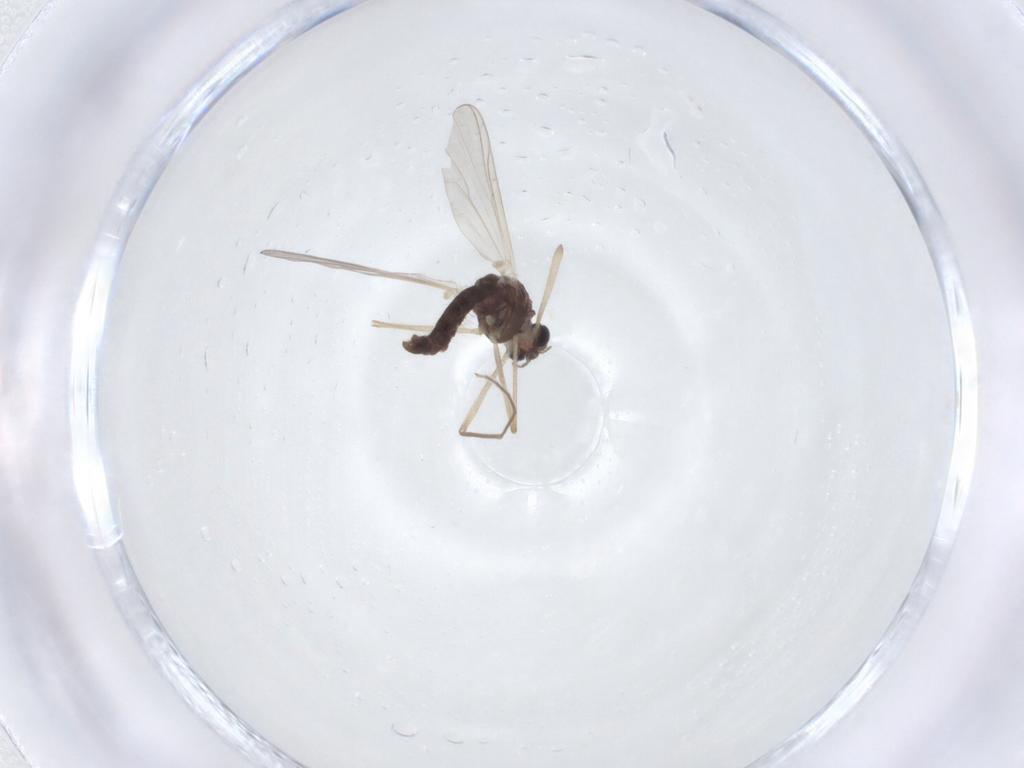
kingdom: Animalia
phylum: Arthropoda
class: Insecta
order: Diptera
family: Chironomidae
